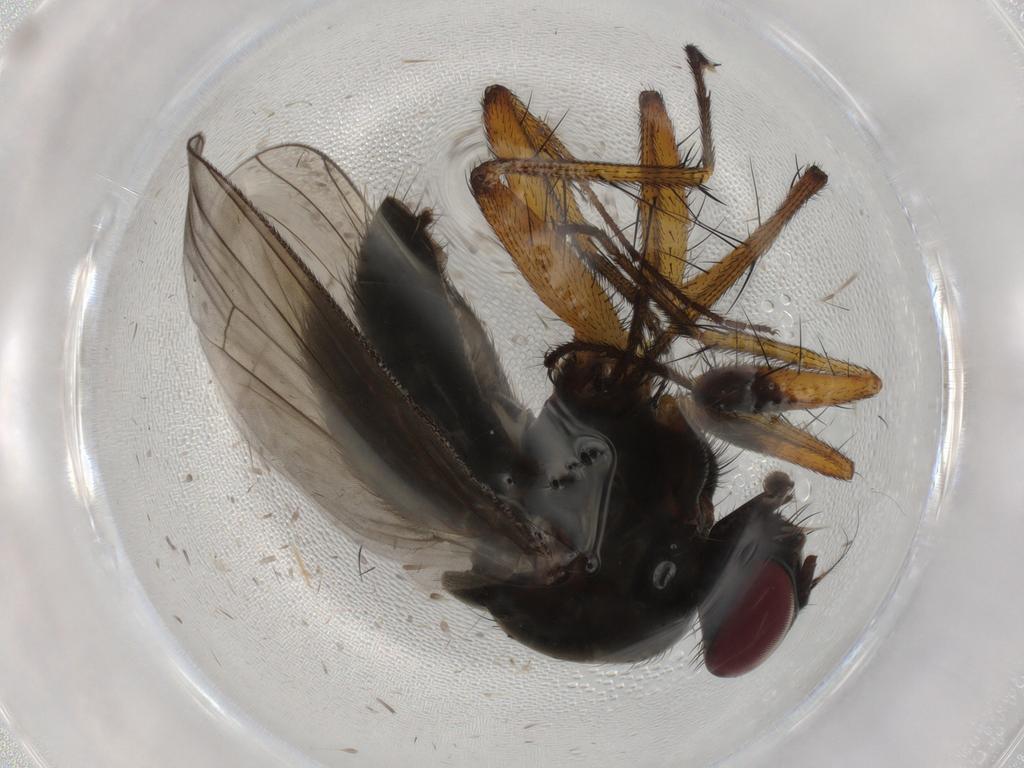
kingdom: Animalia
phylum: Arthropoda
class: Insecta
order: Diptera
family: Muscidae
